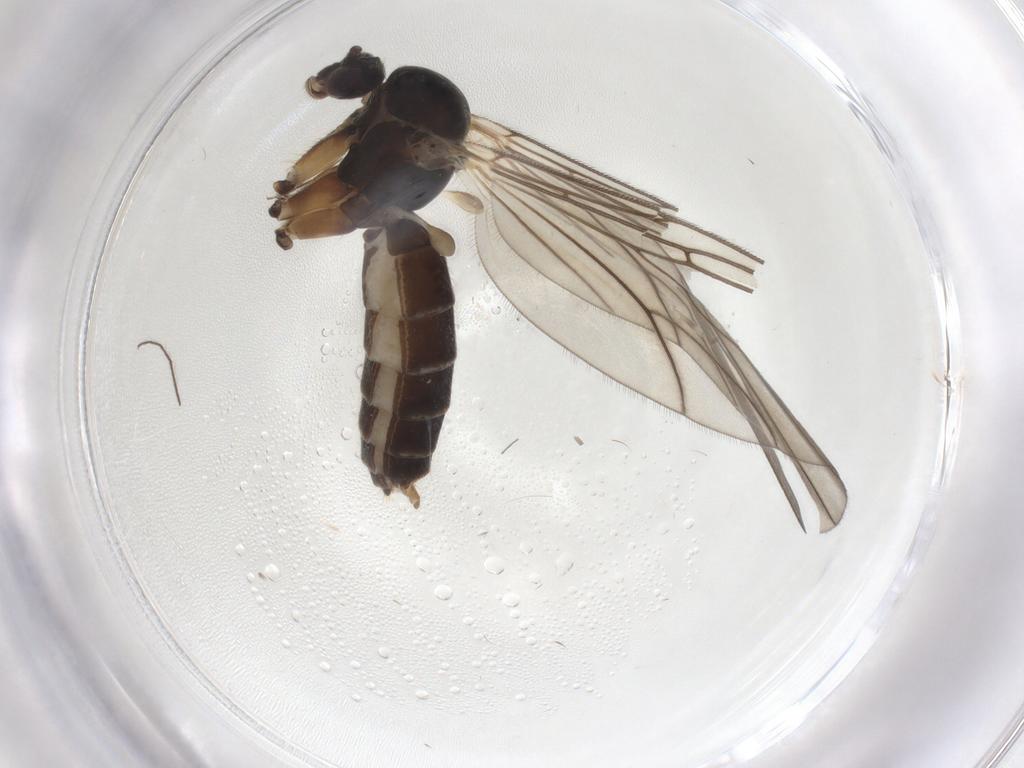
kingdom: Animalia
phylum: Arthropoda
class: Insecta
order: Diptera
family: Mycetophilidae
